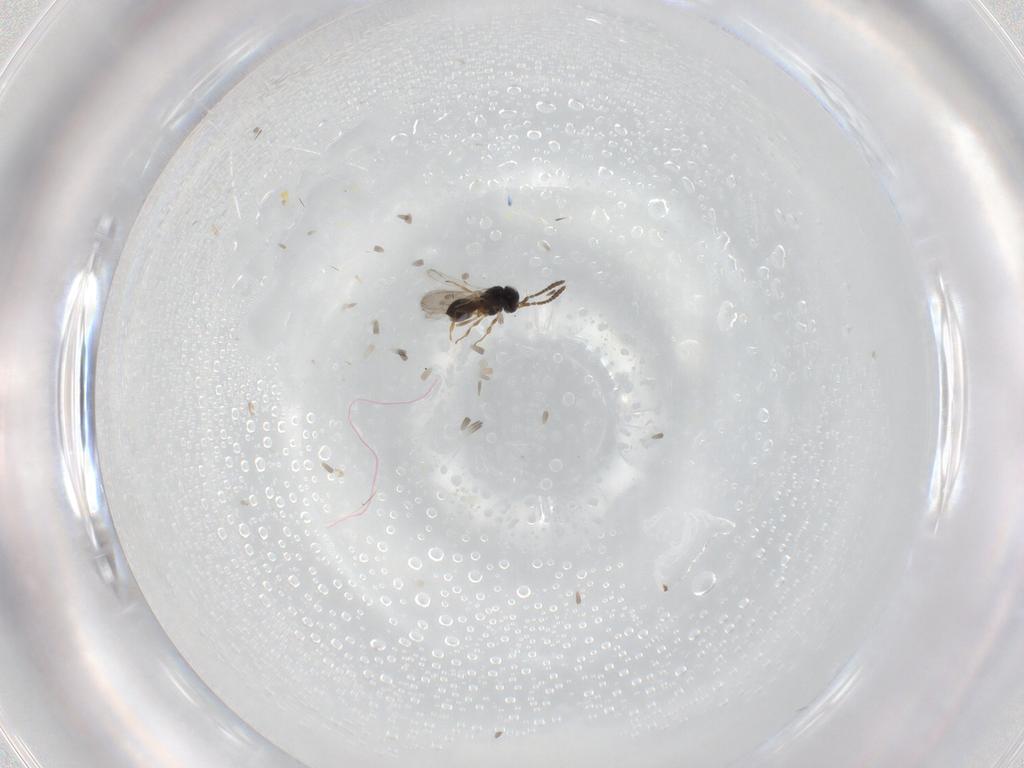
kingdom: Animalia
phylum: Arthropoda
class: Insecta
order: Hymenoptera
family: Scelionidae
